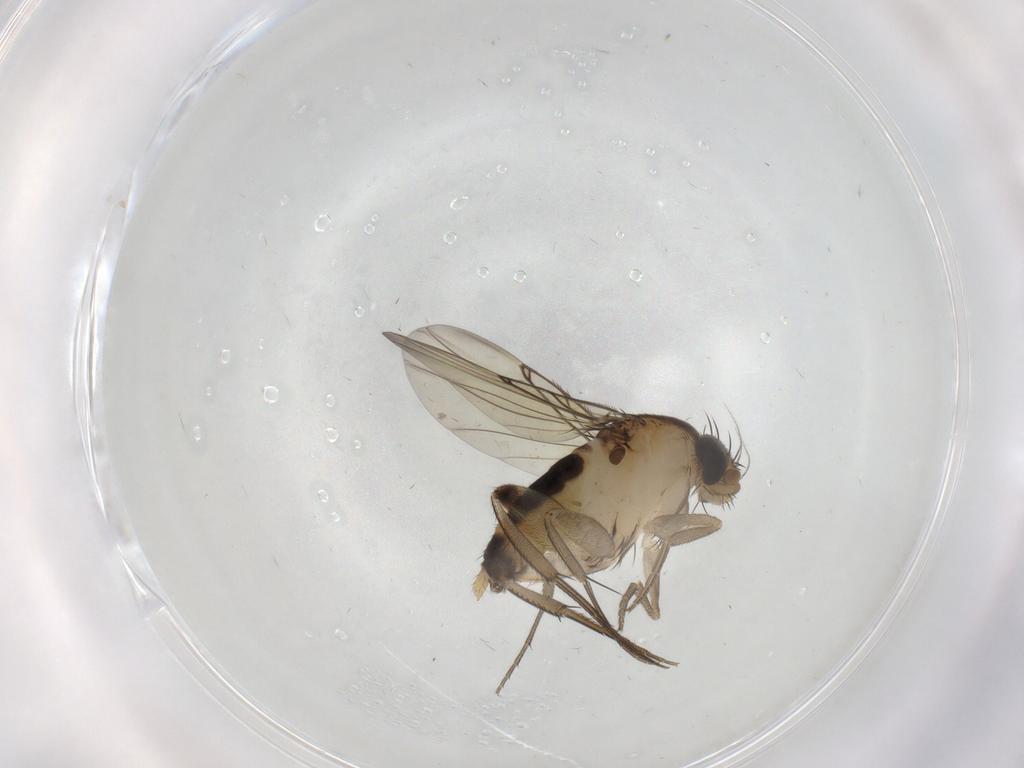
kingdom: Animalia
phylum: Arthropoda
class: Insecta
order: Diptera
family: Phoridae
